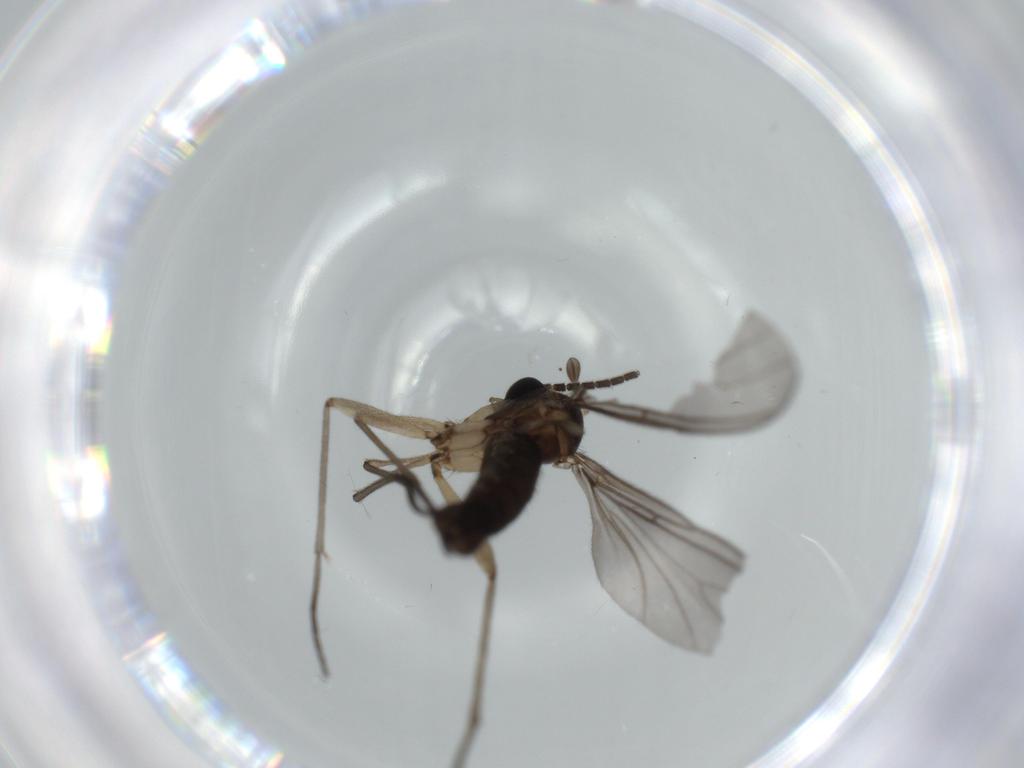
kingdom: Animalia
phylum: Arthropoda
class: Insecta
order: Diptera
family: Sciaridae
